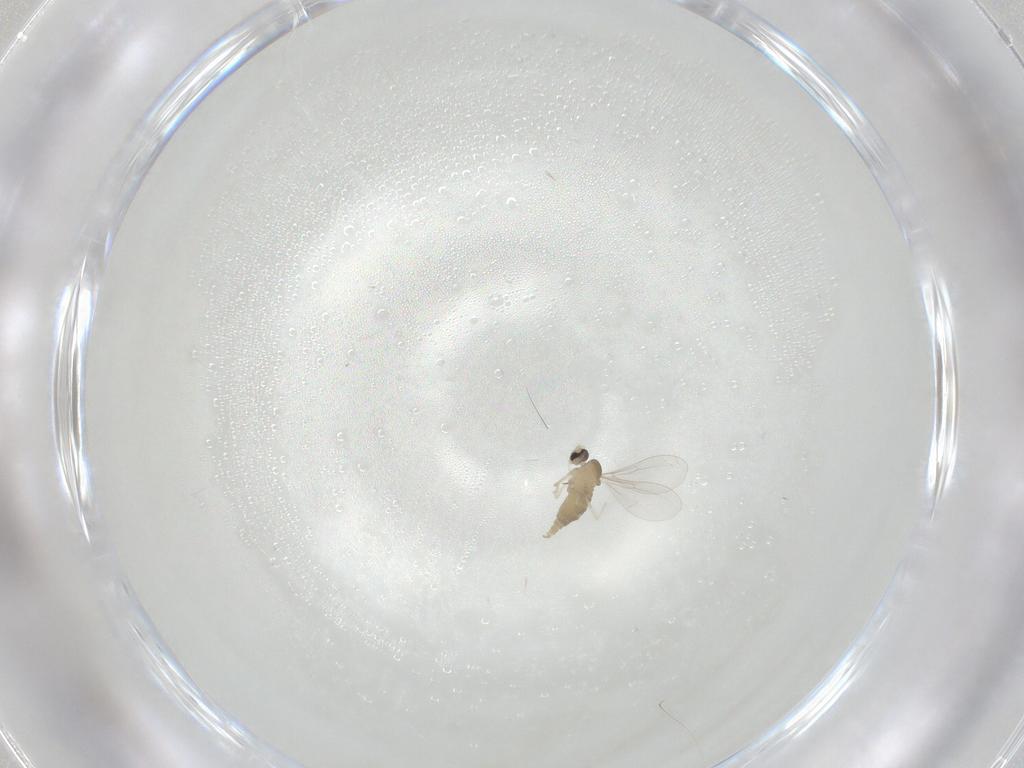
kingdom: Animalia
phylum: Arthropoda
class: Insecta
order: Diptera
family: Cecidomyiidae
